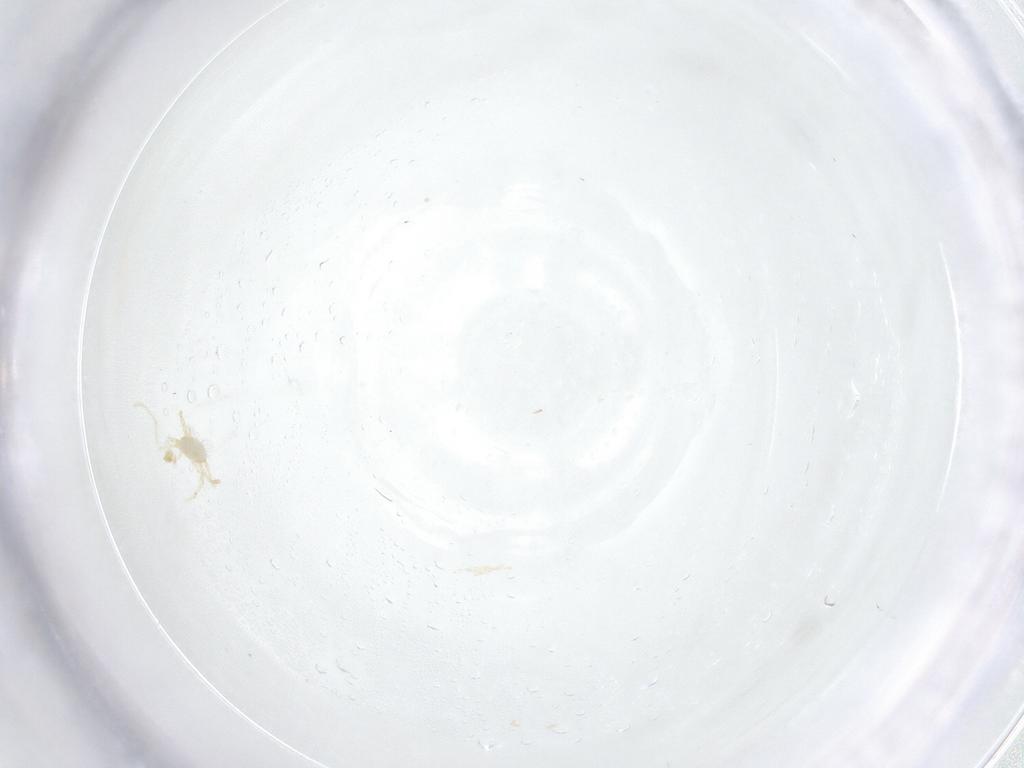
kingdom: Animalia
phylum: Arthropoda
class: Arachnida
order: Trombidiformes
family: Erythraeidae
